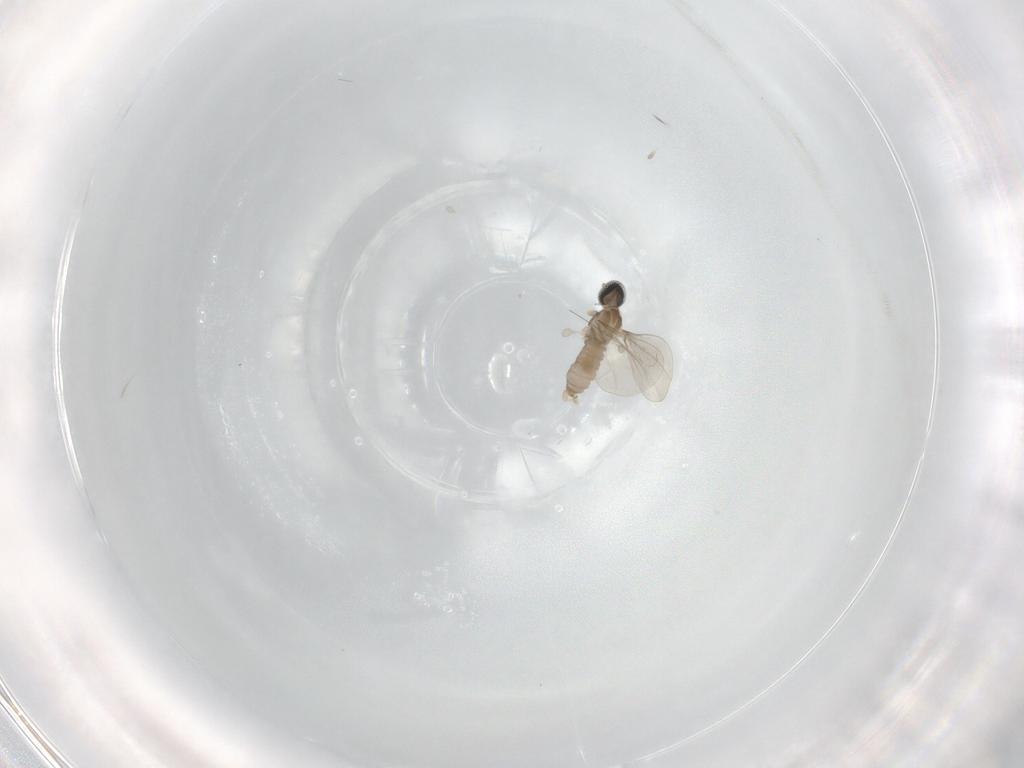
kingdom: Animalia
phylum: Arthropoda
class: Insecta
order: Diptera
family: Cecidomyiidae
